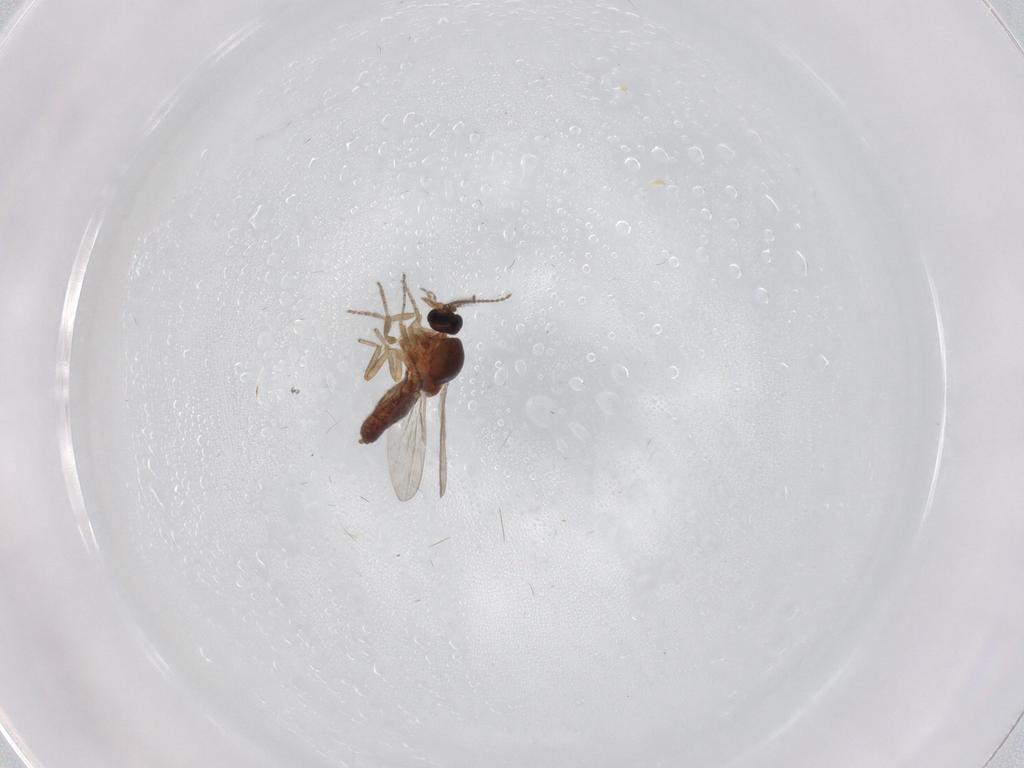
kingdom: Animalia
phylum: Arthropoda
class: Insecta
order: Diptera
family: Ceratopogonidae
